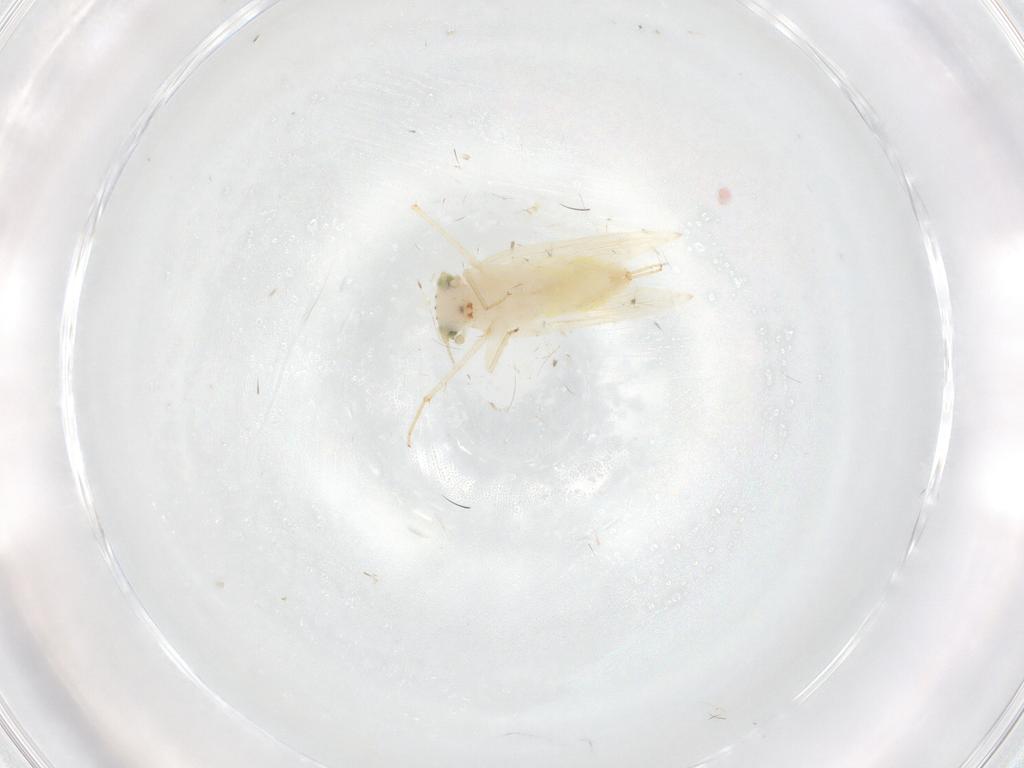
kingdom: Animalia
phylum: Arthropoda
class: Insecta
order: Psocodea
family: Lepidopsocidae
